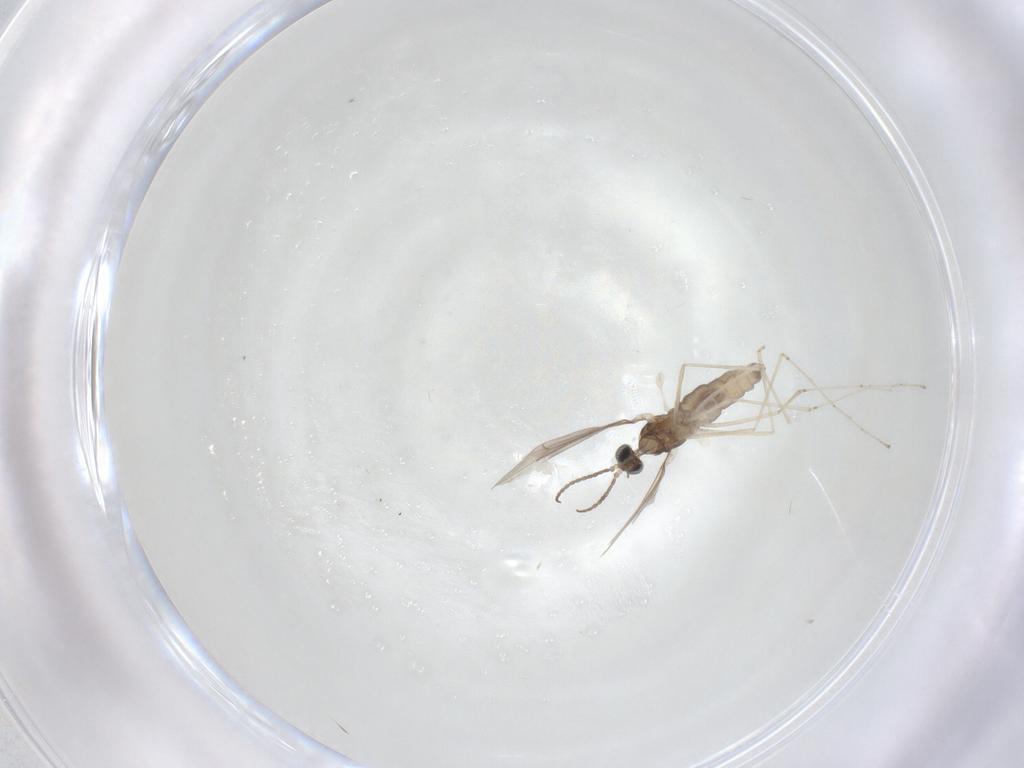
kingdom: Animalia
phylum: Arthropoda
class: Insecta
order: Diptera
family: Cecidomyiidae
